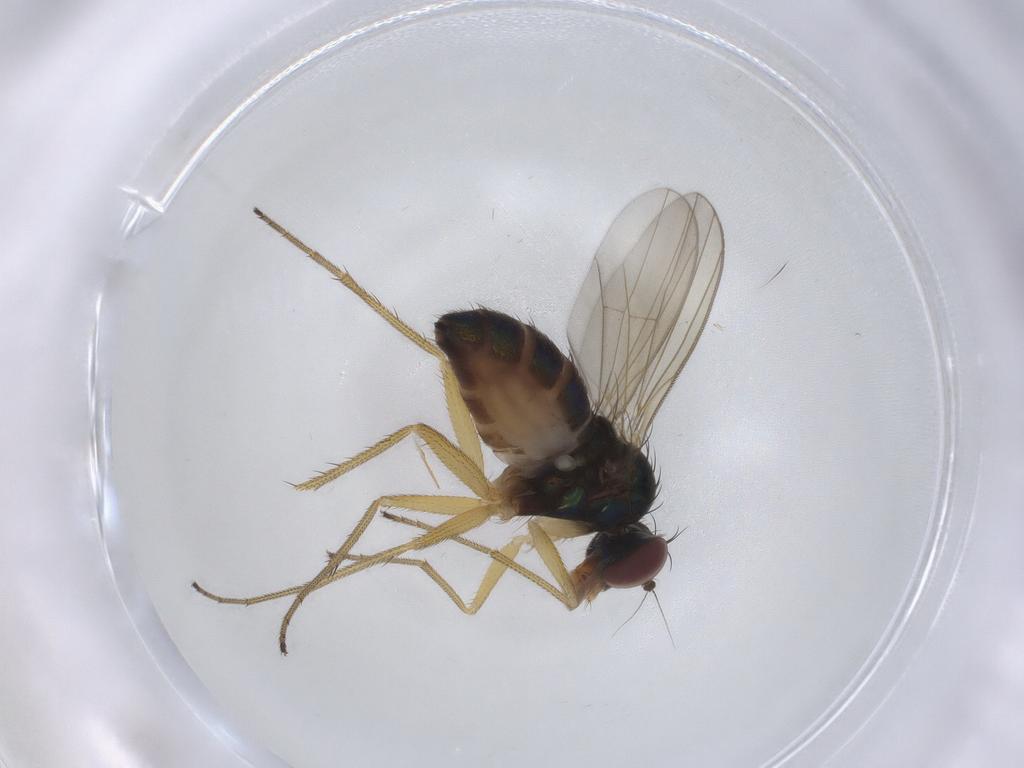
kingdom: Animalia
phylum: Arthropoda
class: Insecta
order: Diptera
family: Dolichopodidae
